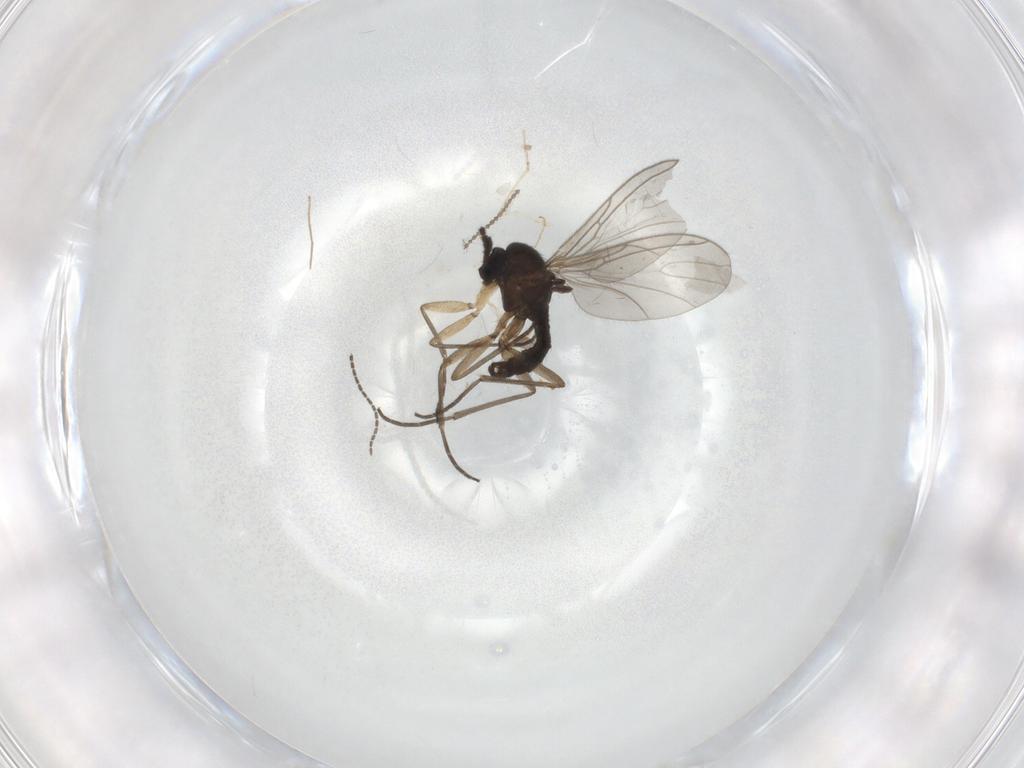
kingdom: Animalia
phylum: Arthropoda
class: Insecta
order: Diptera
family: Chironomidae
